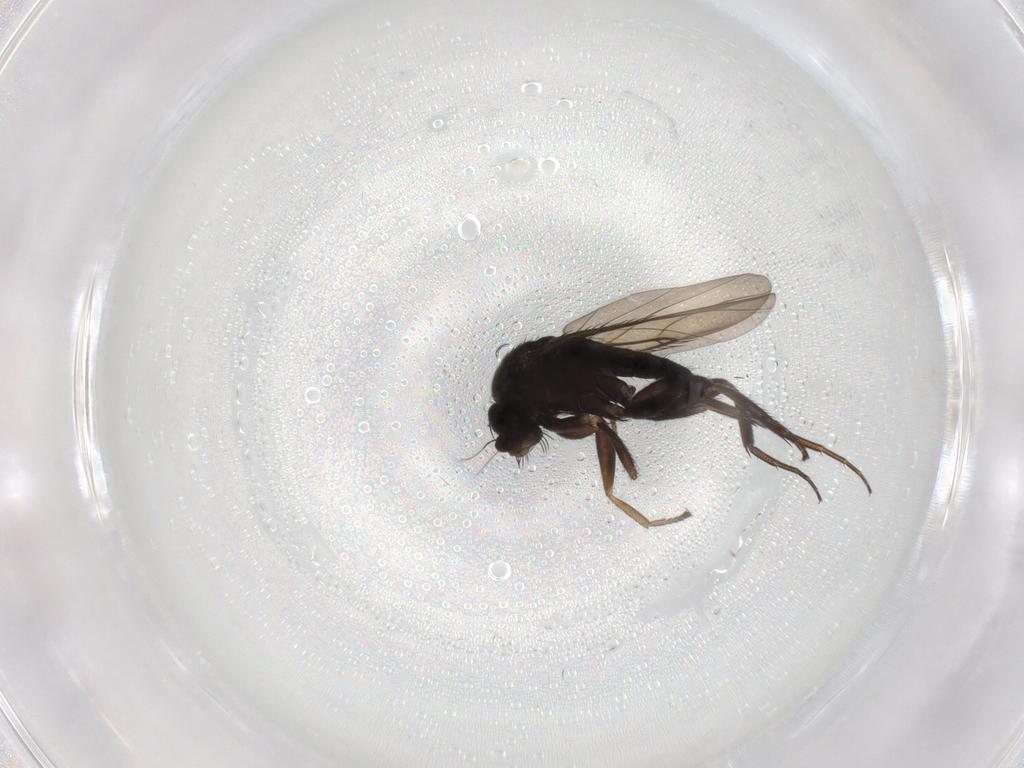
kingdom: Animalia
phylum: Arthropoda
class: Insecta
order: Diptera
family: Phoridae
